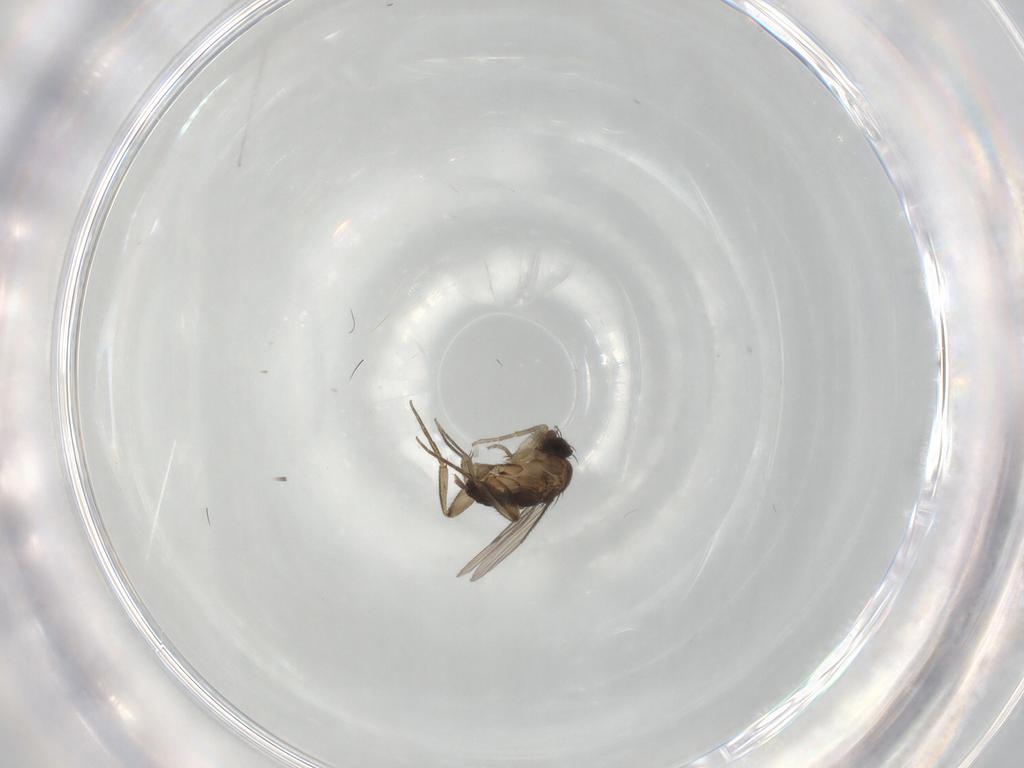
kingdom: Animalia
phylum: Arthropoda
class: Insecta
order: Diptera
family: Phoridae
